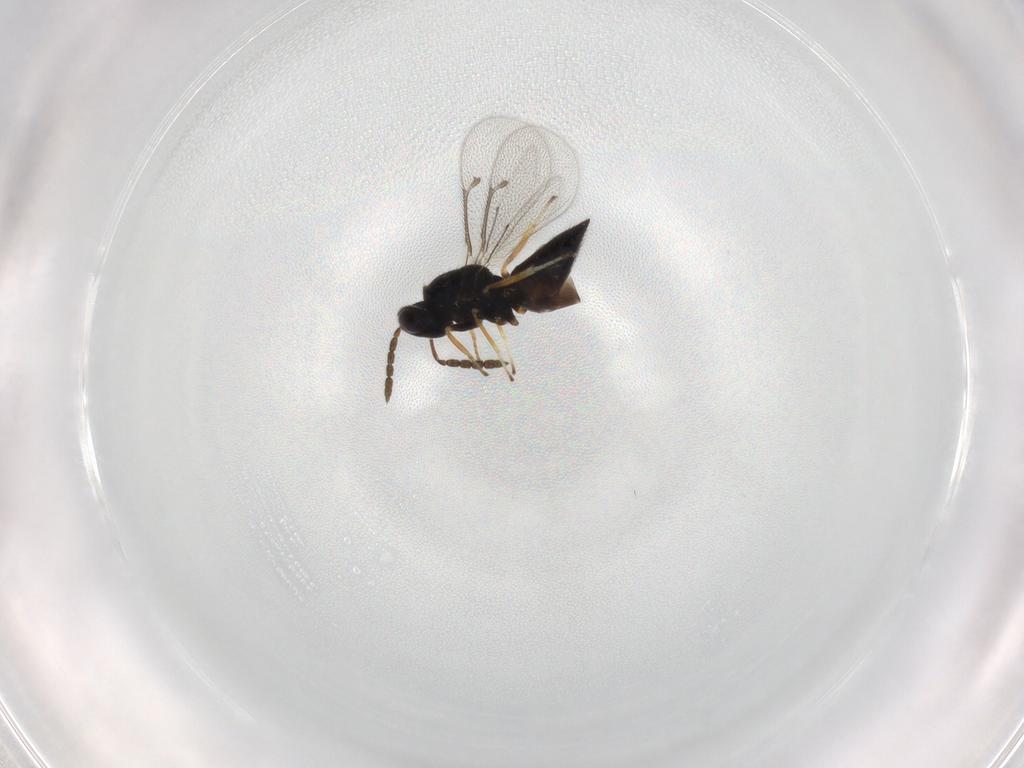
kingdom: Animalia
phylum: Arthropoda
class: Insecta
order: Hymenoptera
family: Eulophidae
